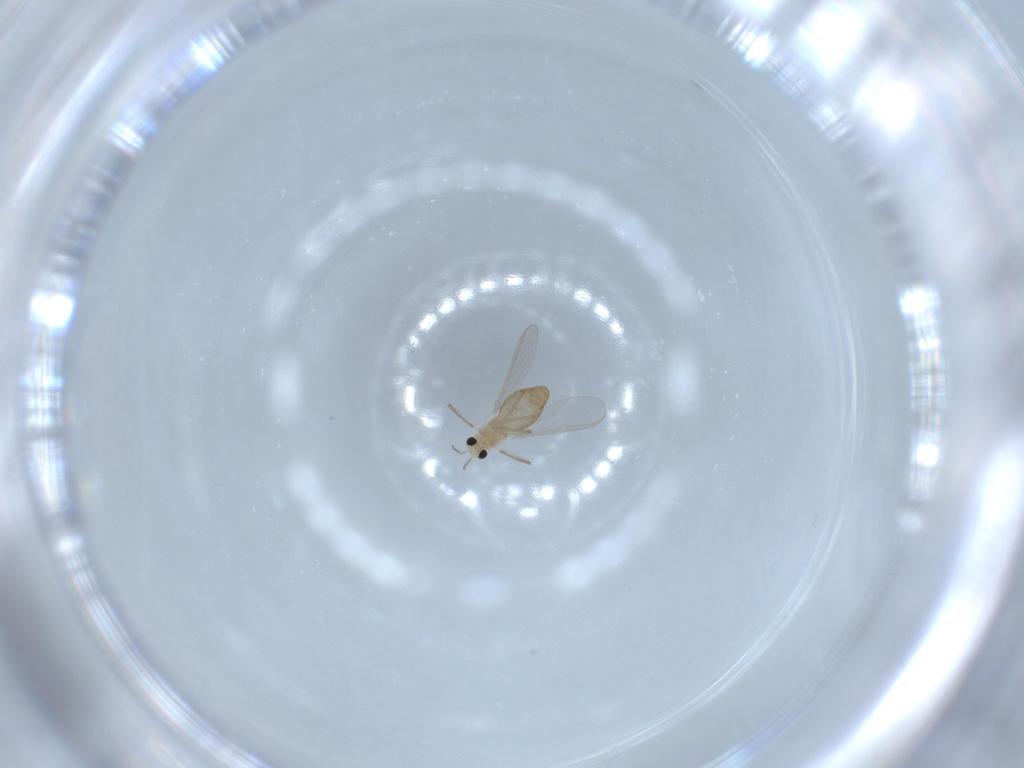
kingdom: Animalia
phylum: Arthropoda
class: Insecta
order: Diptera
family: Chironomidae
